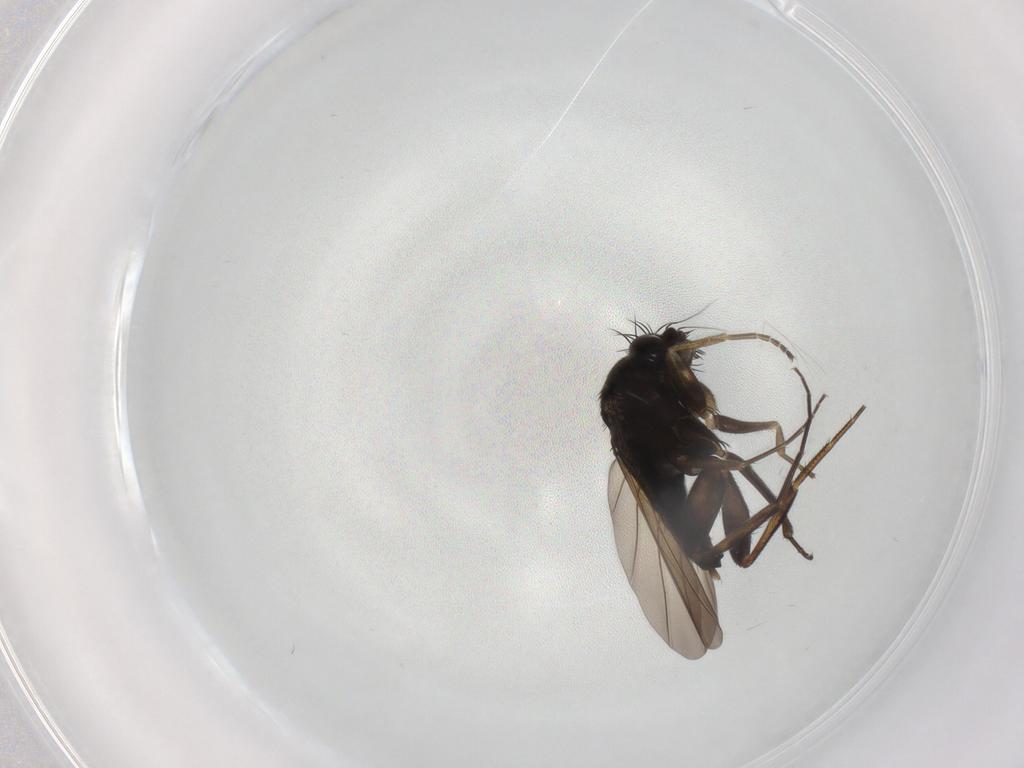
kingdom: Animalia
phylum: Arthropoda
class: Insecta
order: Diptera
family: Phoridae
